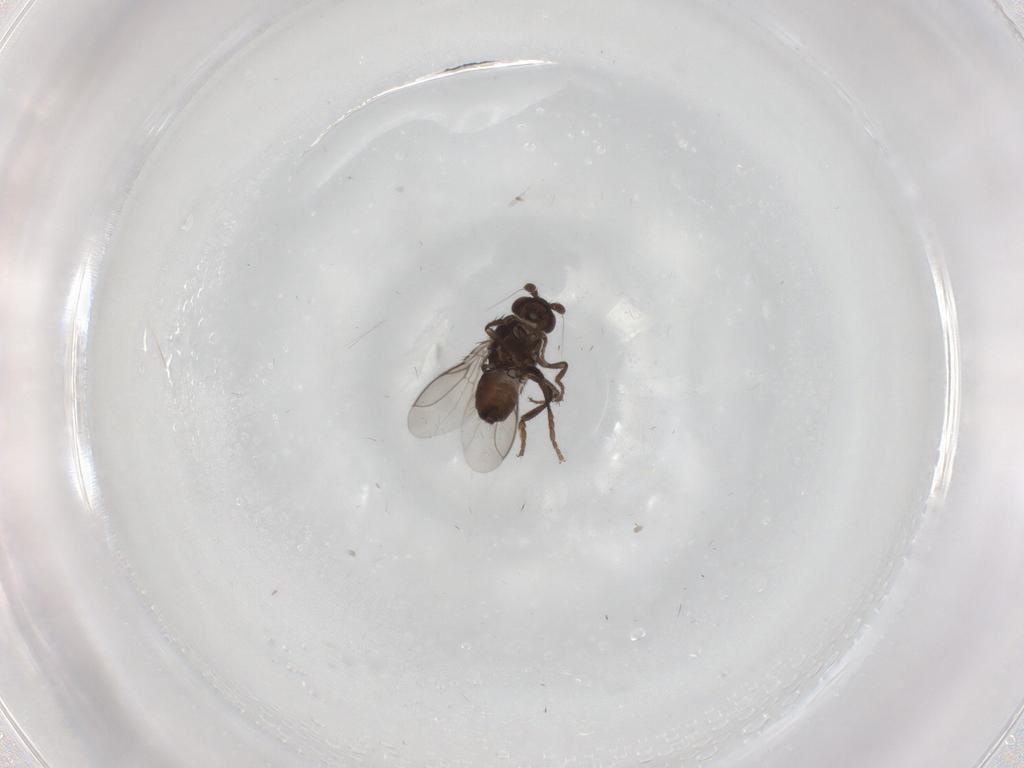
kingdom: Animalia
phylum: Arthropoda
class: Insecta
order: Diptera
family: Sphaeroceridae
